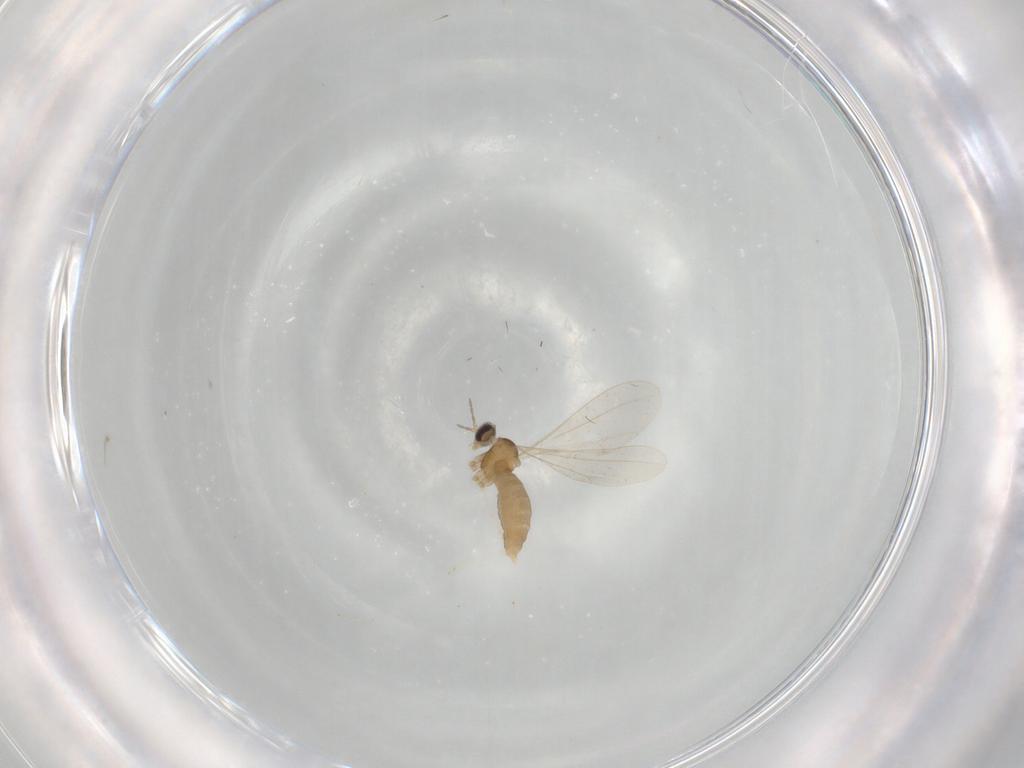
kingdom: Animalia
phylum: Arthropoda
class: Insecta
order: Diptera
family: Cecidomyiidae
